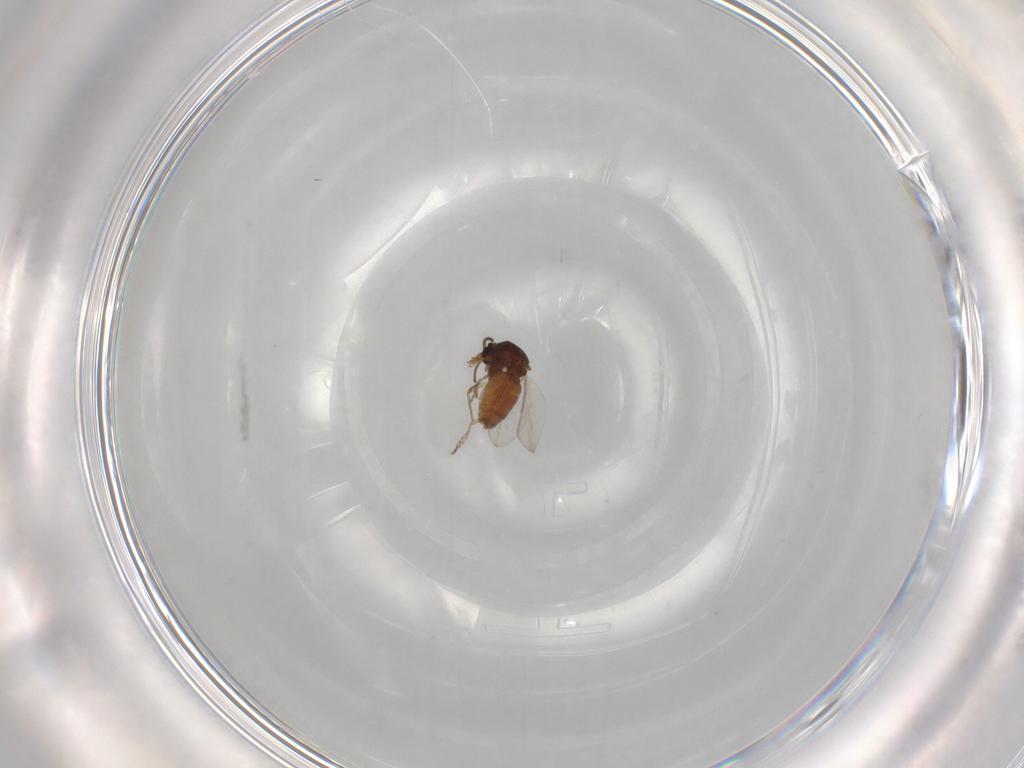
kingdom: Animalia
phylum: Arthropoda
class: Insecta
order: Diptera
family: Ceratopogonidae
